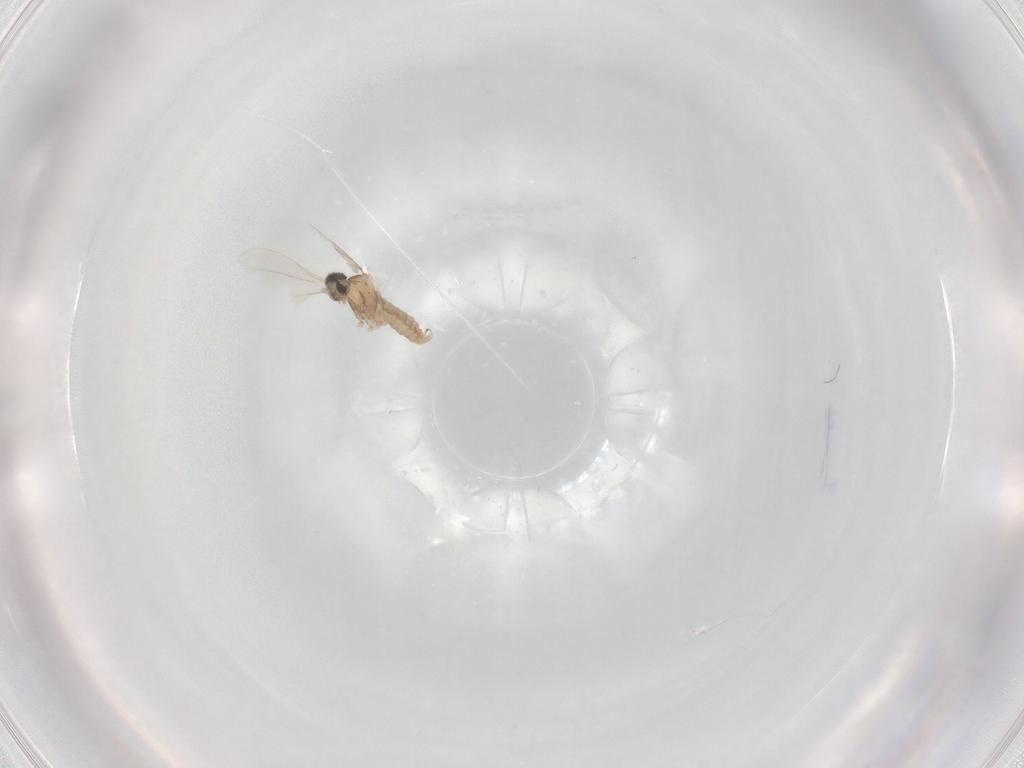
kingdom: Animalia
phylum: Arthropoda
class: Insecta
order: Diptera
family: Cecidomyiidae
